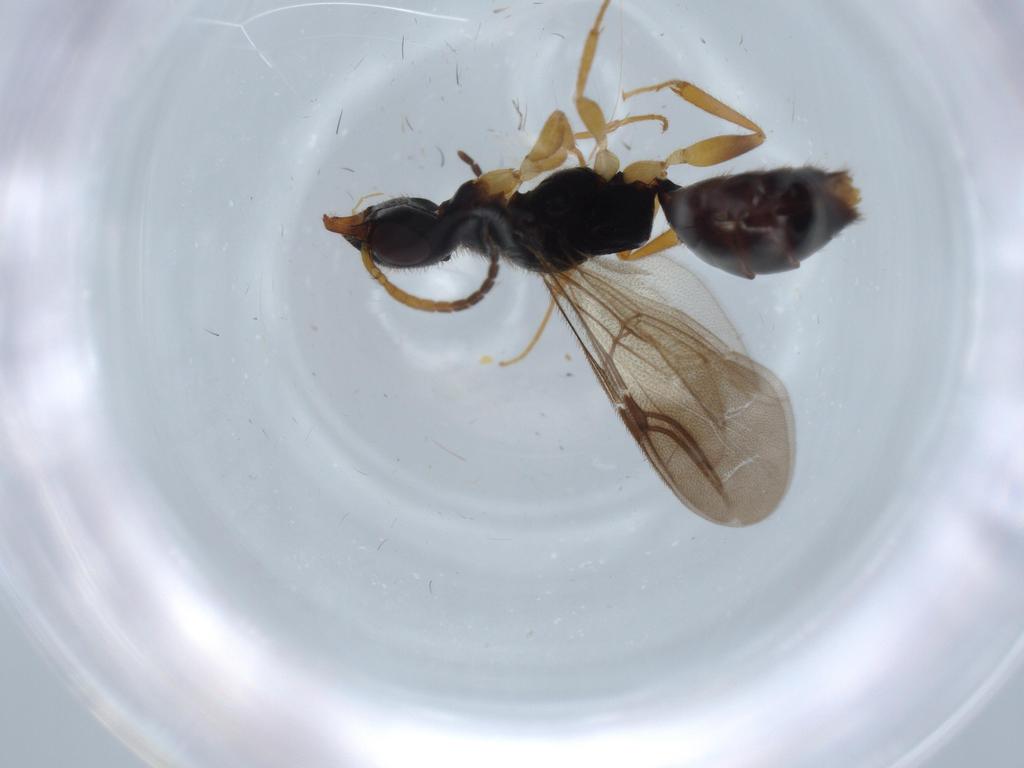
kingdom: Animalia
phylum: Arthropoda
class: Insecta
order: Hymenoptera
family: Bethylidae
